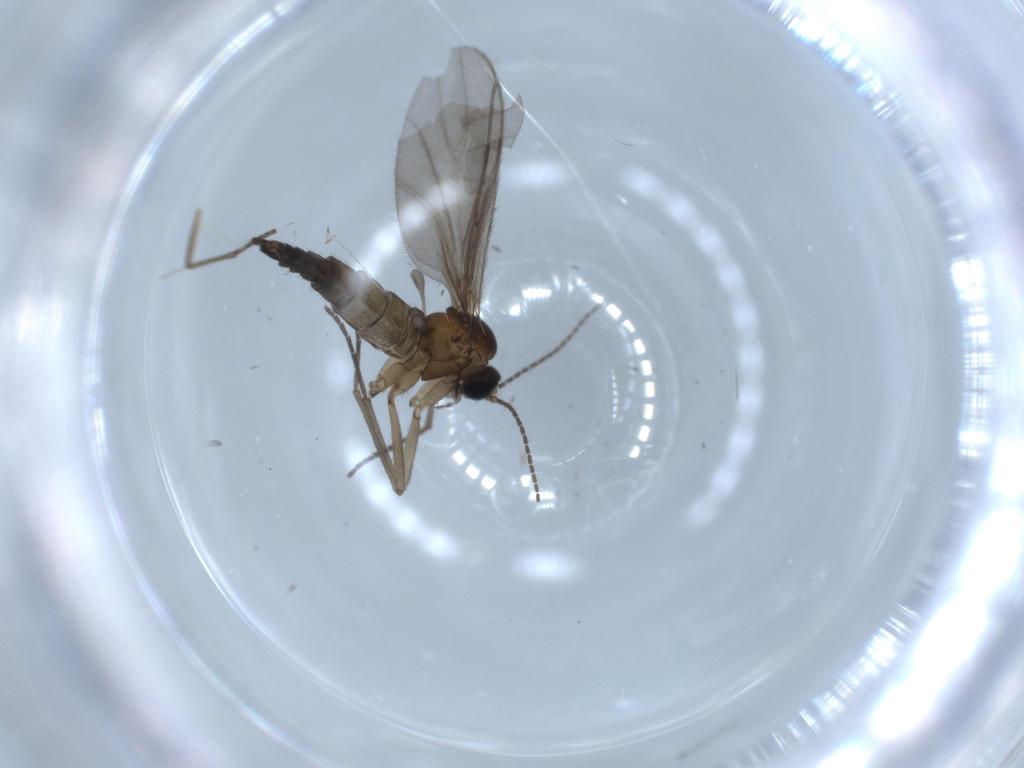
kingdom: Animalia
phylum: Arthropoda
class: Insecta
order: Diptera
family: Sciaridae
